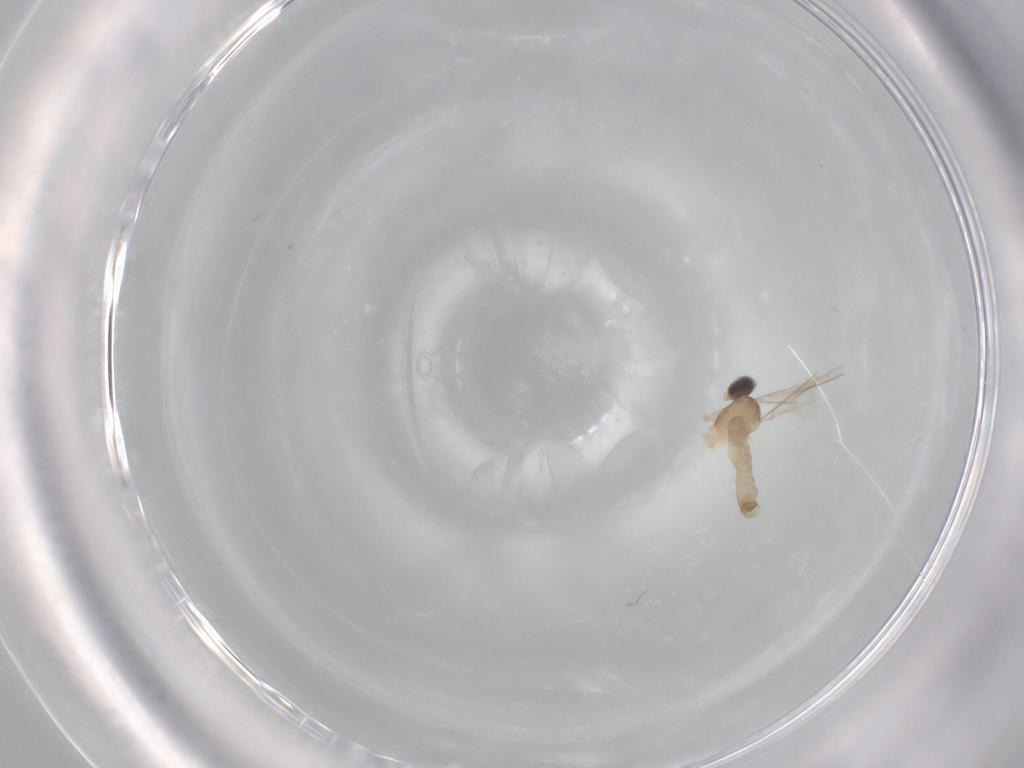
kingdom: Animalia
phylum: Arthropoda
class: Insecta
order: Diptera
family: Cecidomyiidae
